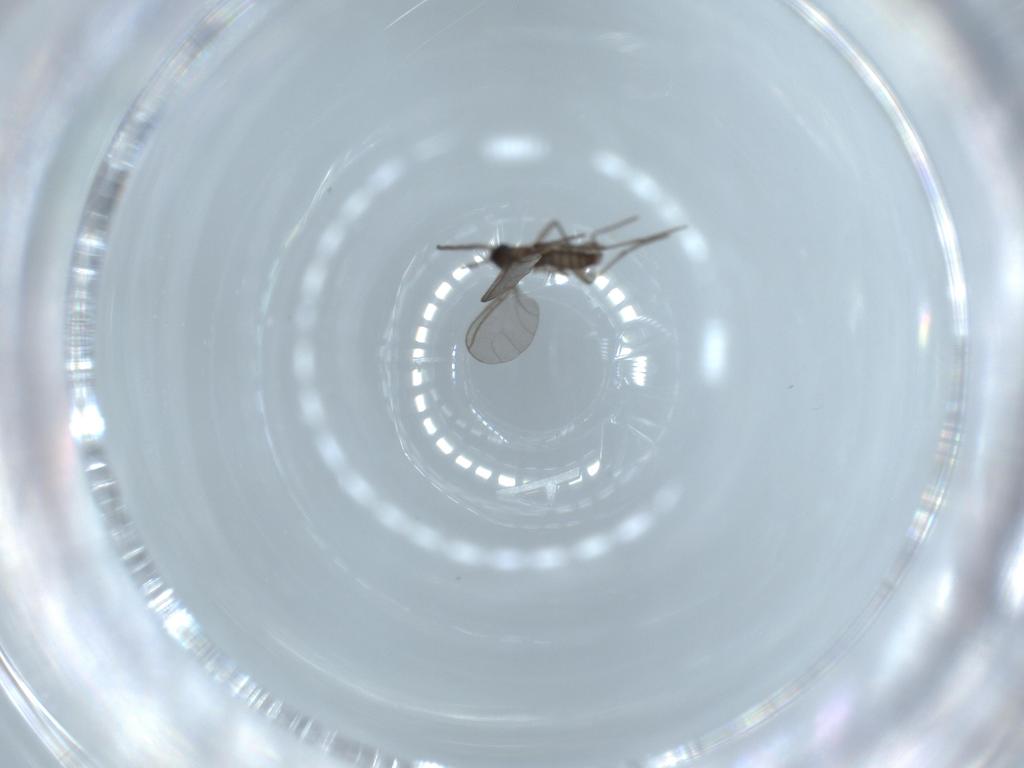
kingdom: Animalia
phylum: Arthropoda
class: Insecta
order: Diptera
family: Sciaridae
